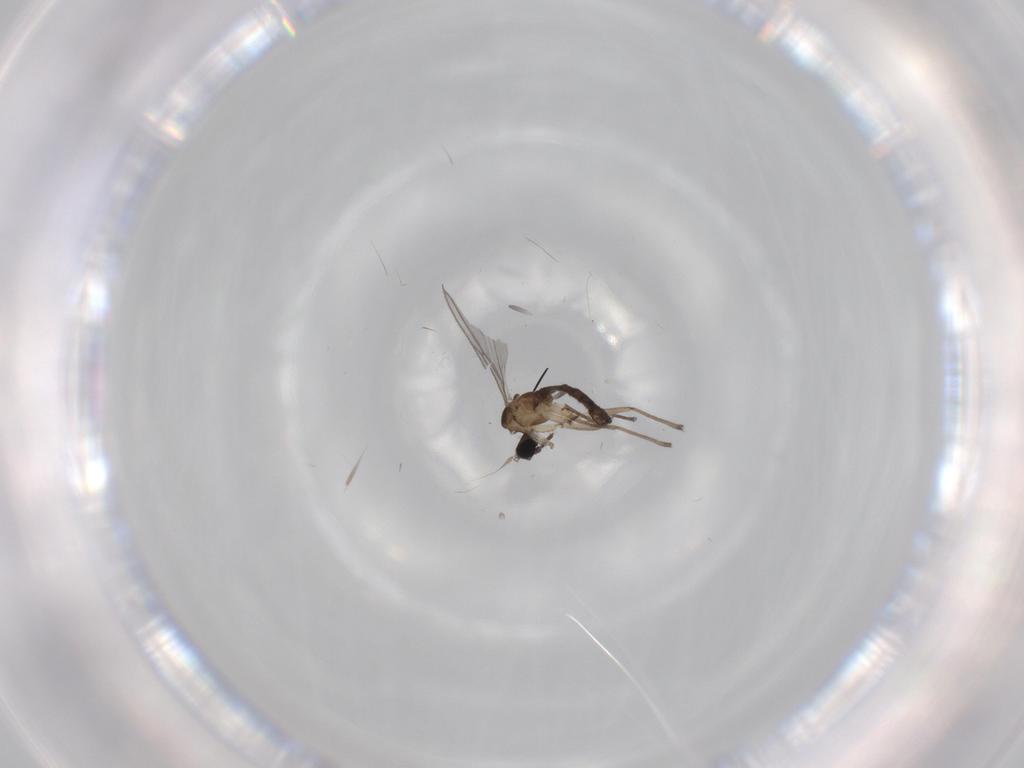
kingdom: Animalia
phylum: Arthropoda
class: Insecta
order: Diptera
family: Sciaridae
